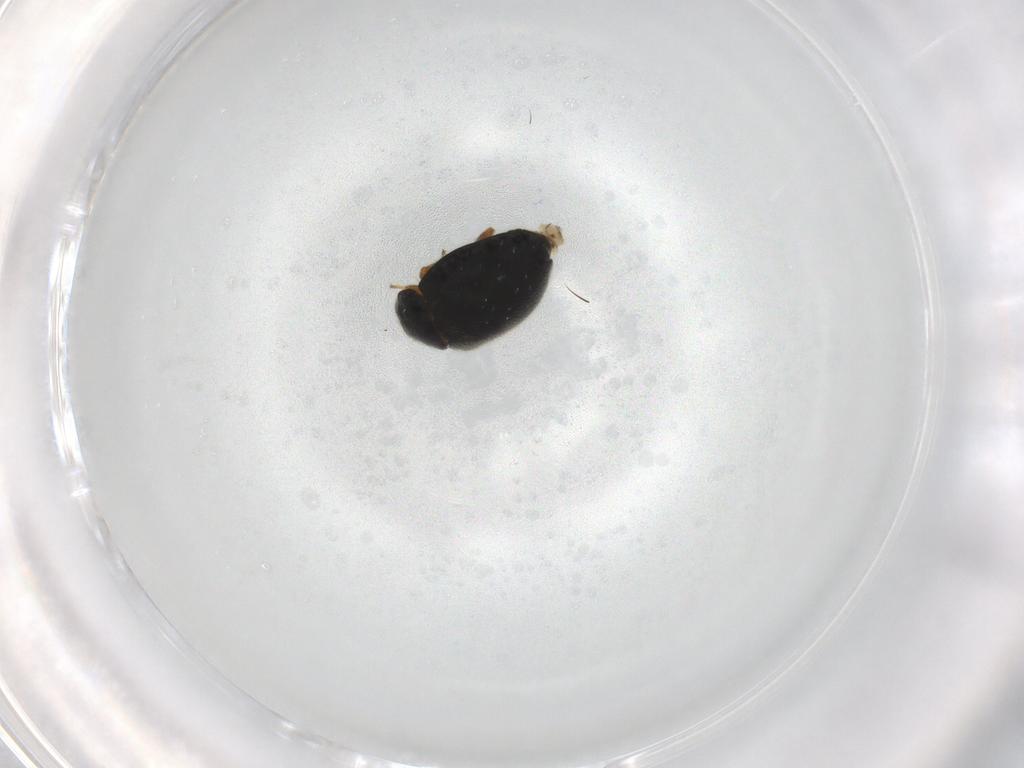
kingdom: Animalia
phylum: Arthropoda
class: Insecta
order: Coleoptera
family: Coccinellidae
